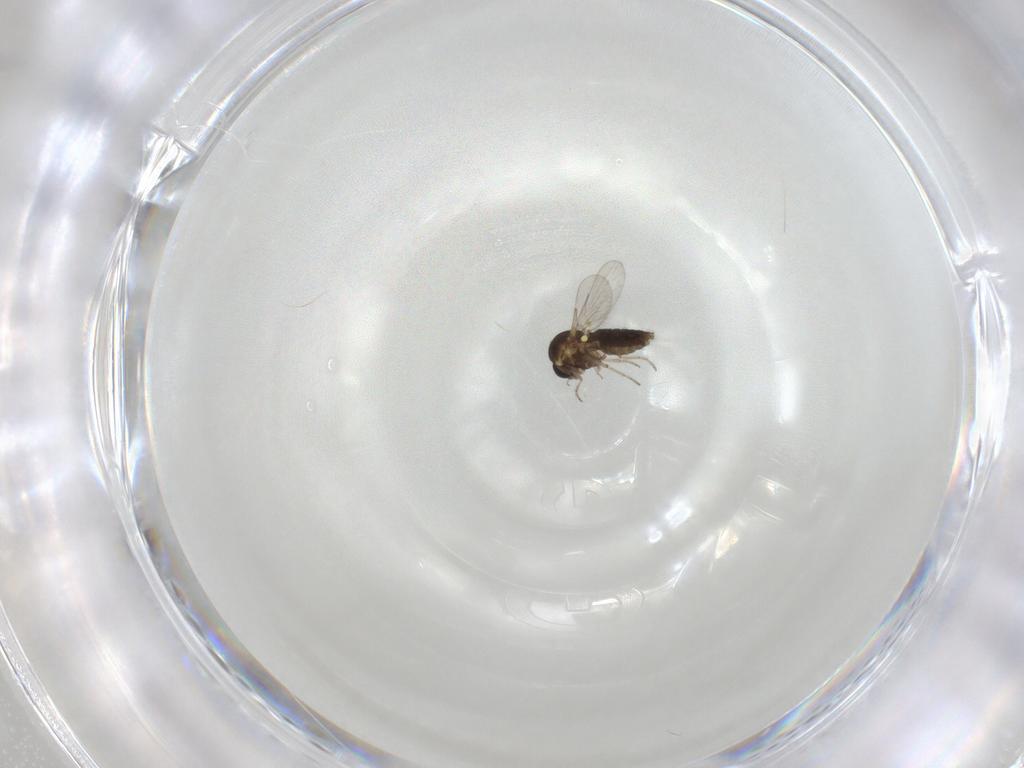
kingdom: Animalia
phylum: Arthropoda
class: Insecta
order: Diptera
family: Ceratopogonidae
